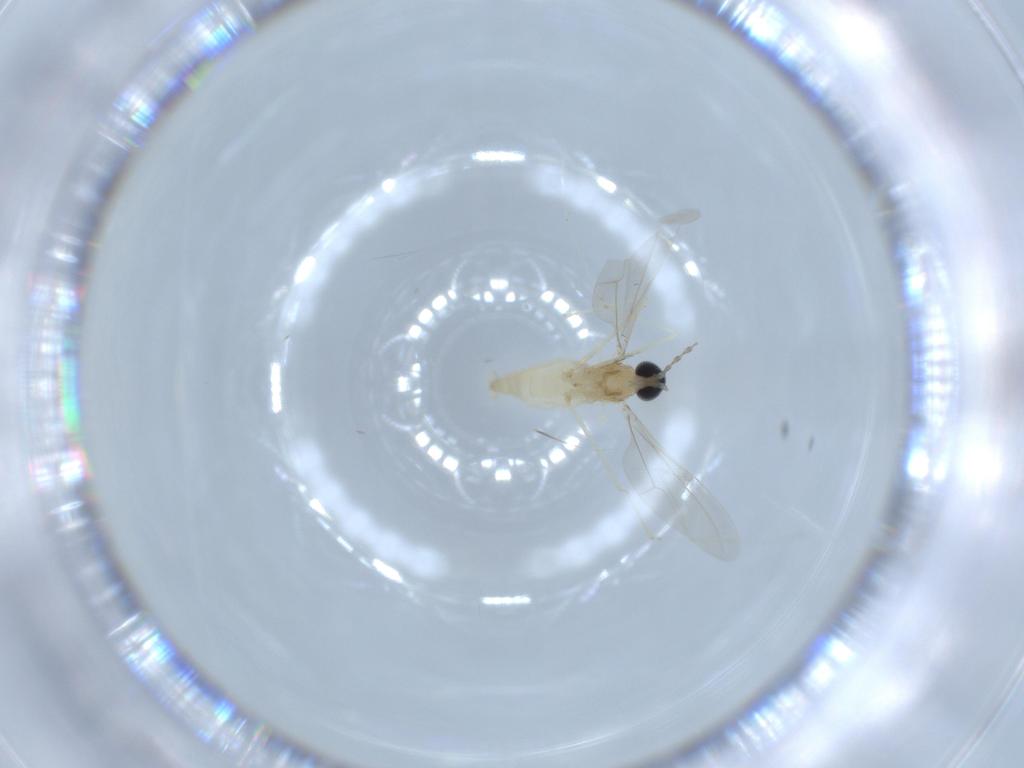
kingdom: Animalia
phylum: Arthropoda
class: Insecta
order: Diptera
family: Cecidomyiidae
